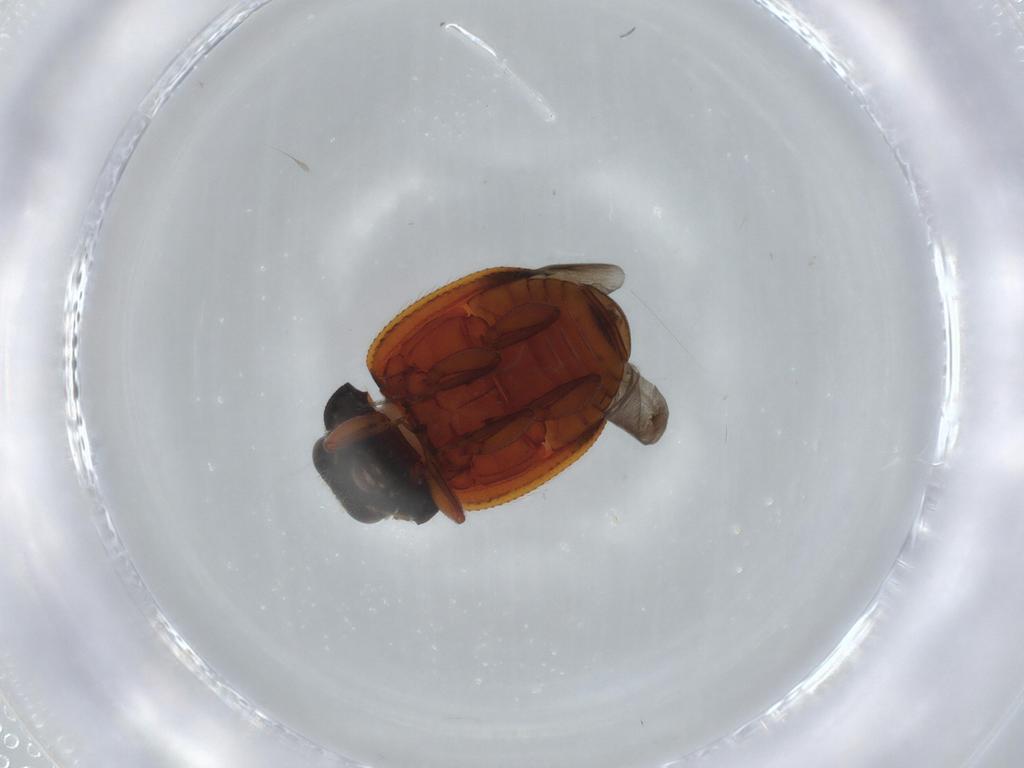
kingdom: Animalia
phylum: Arthropoda
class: Insecta
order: Coleoptera
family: Coccinellidae
